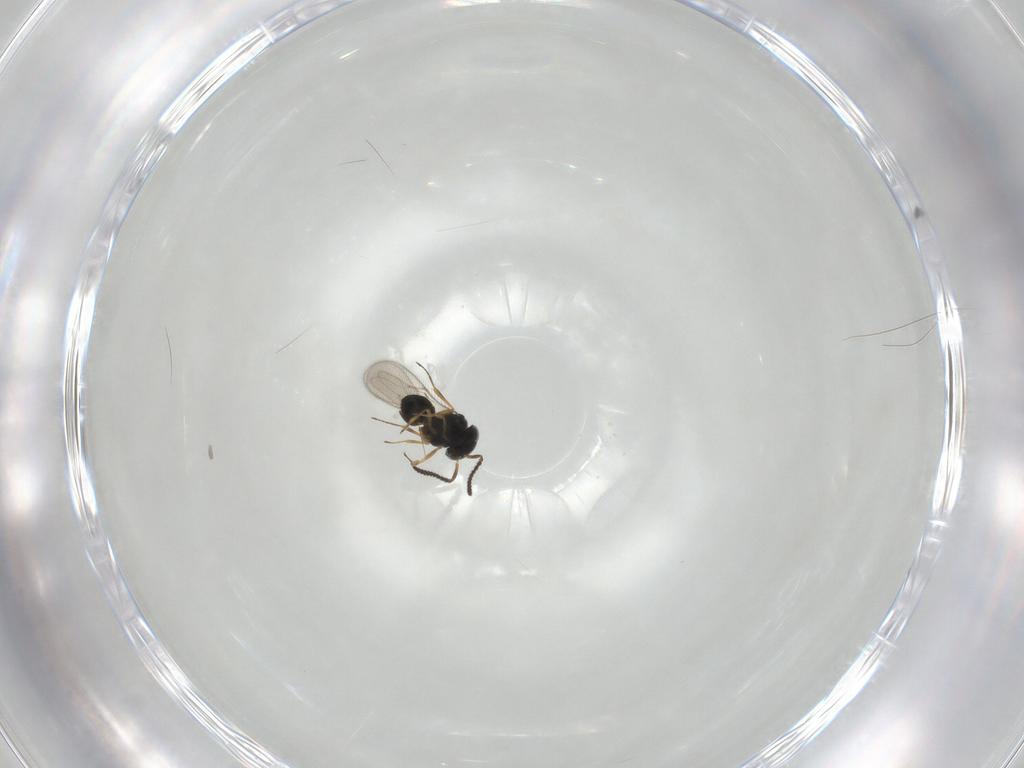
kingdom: Animalia
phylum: Arthropoda
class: Insecta
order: Hymenoptera
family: Scelionidae
